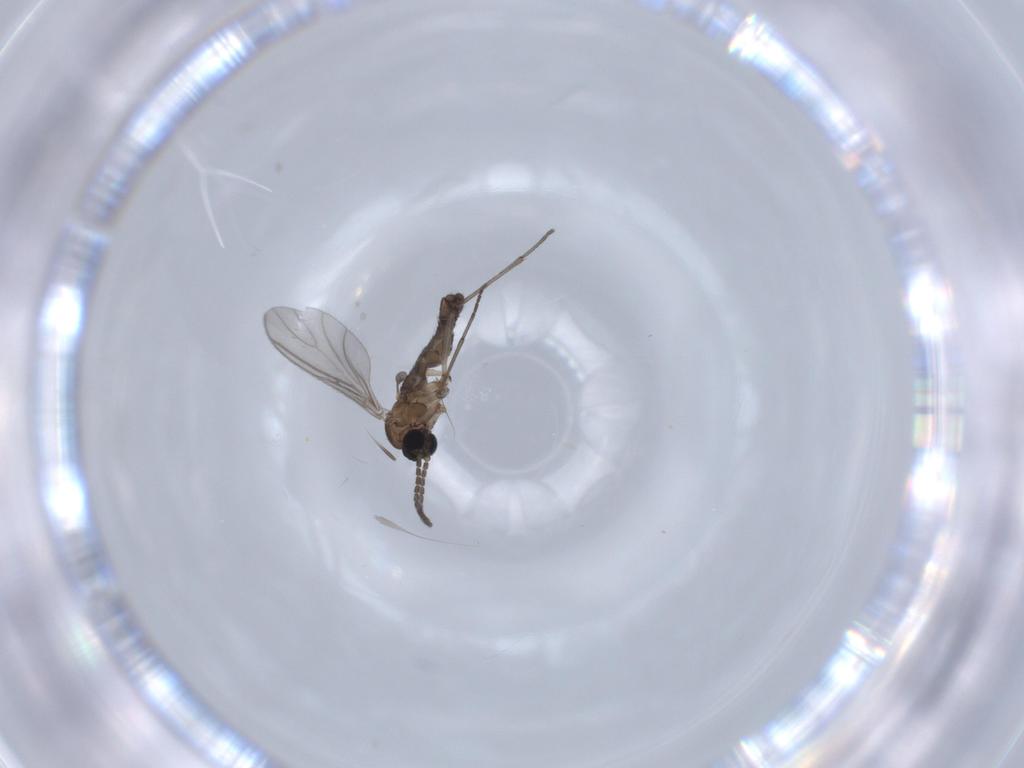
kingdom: Animalia
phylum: Arthropoda
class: Insecta
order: Diptera
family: Sciaridae
